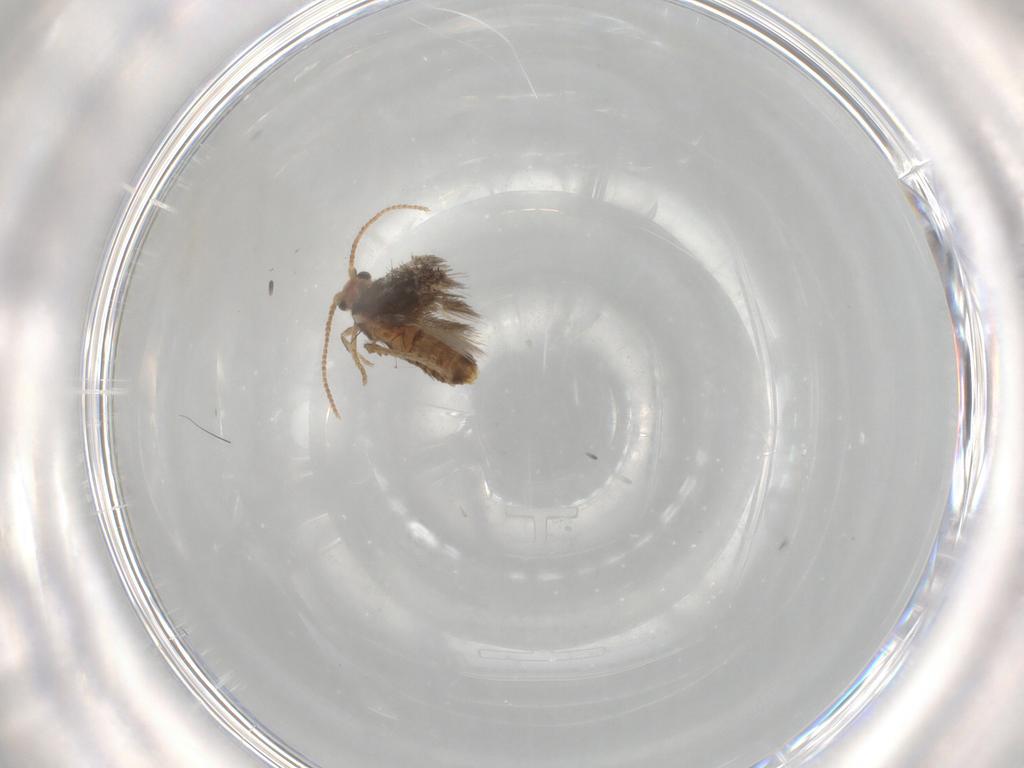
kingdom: Animalia
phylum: Arthropoda
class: Insecta
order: Lepidoptera
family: Nepticulidae
